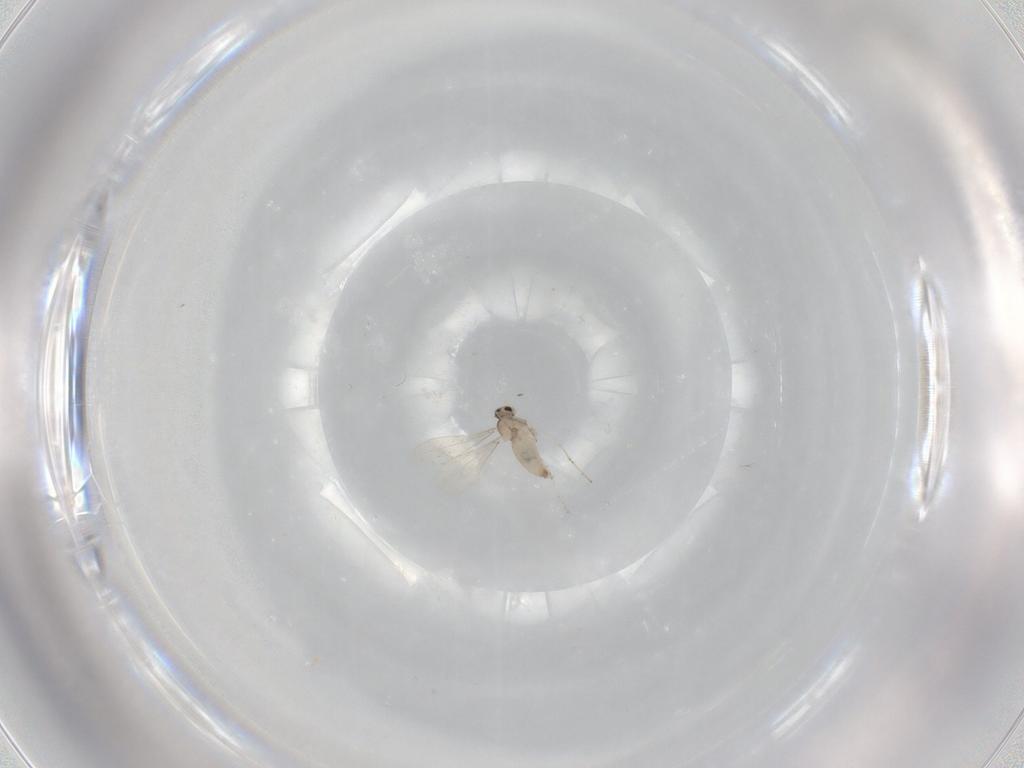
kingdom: Animalia
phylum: Arthropoda
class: Insecta
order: Diptera
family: Cecidomyiidae
